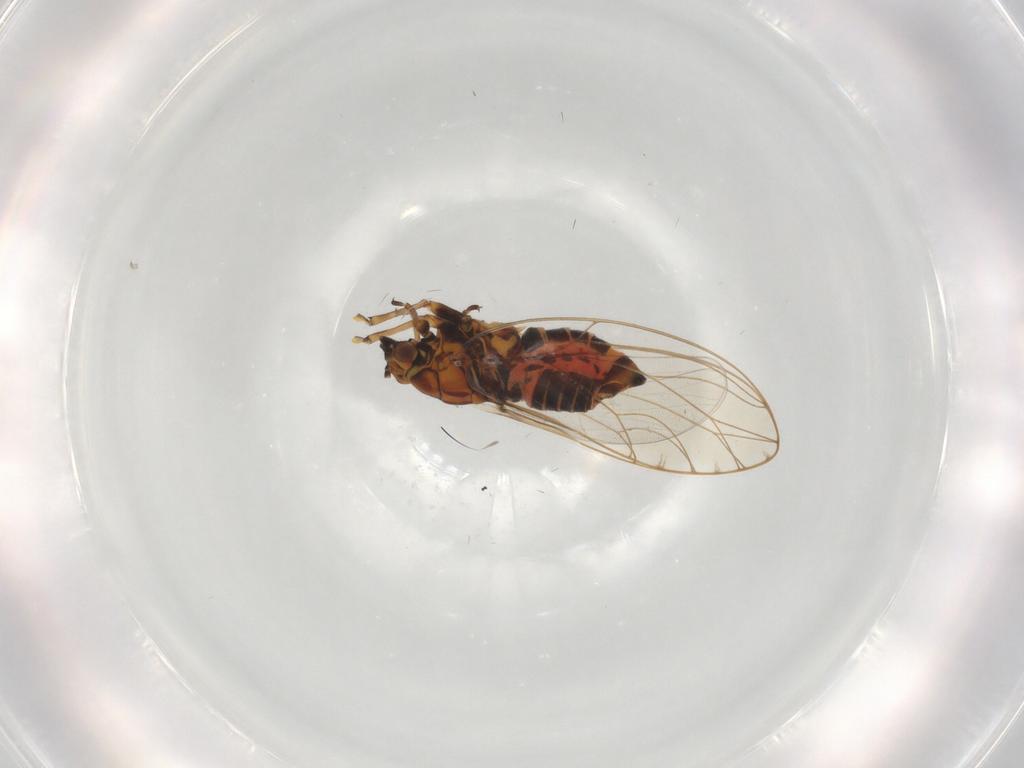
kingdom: Animalia
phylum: Arthropoda
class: Insecta
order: Hemiptera
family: Triozidae
